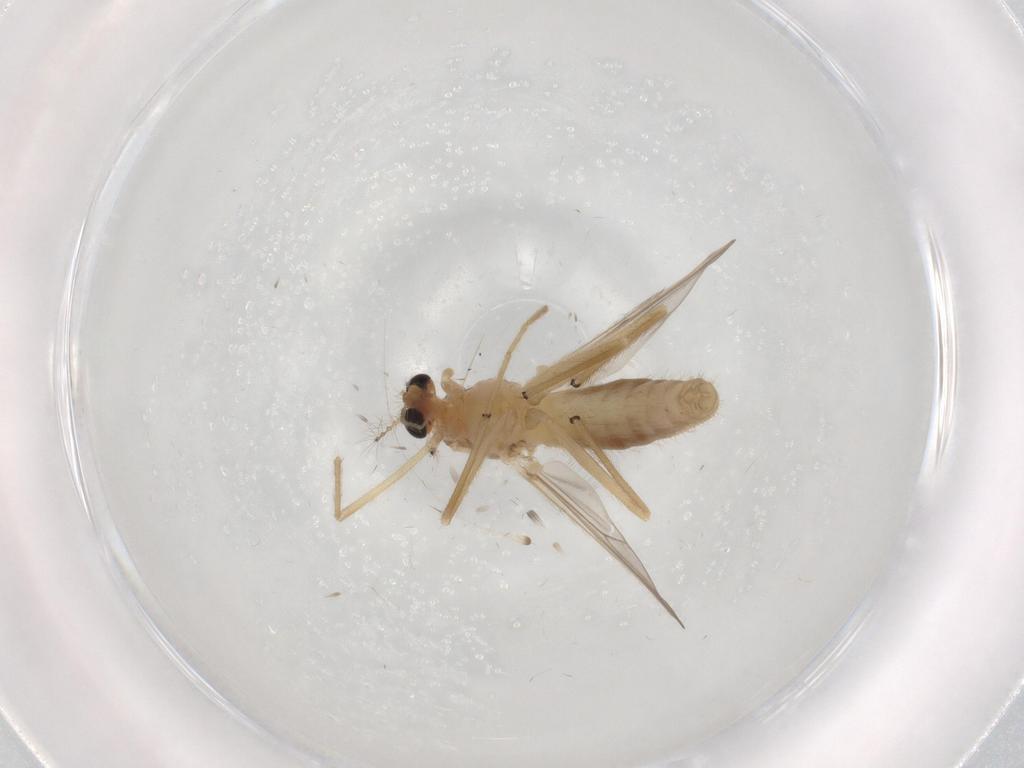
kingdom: Animalia
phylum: Arthropoda
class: Insecta
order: Diptera
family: Chironomidae
